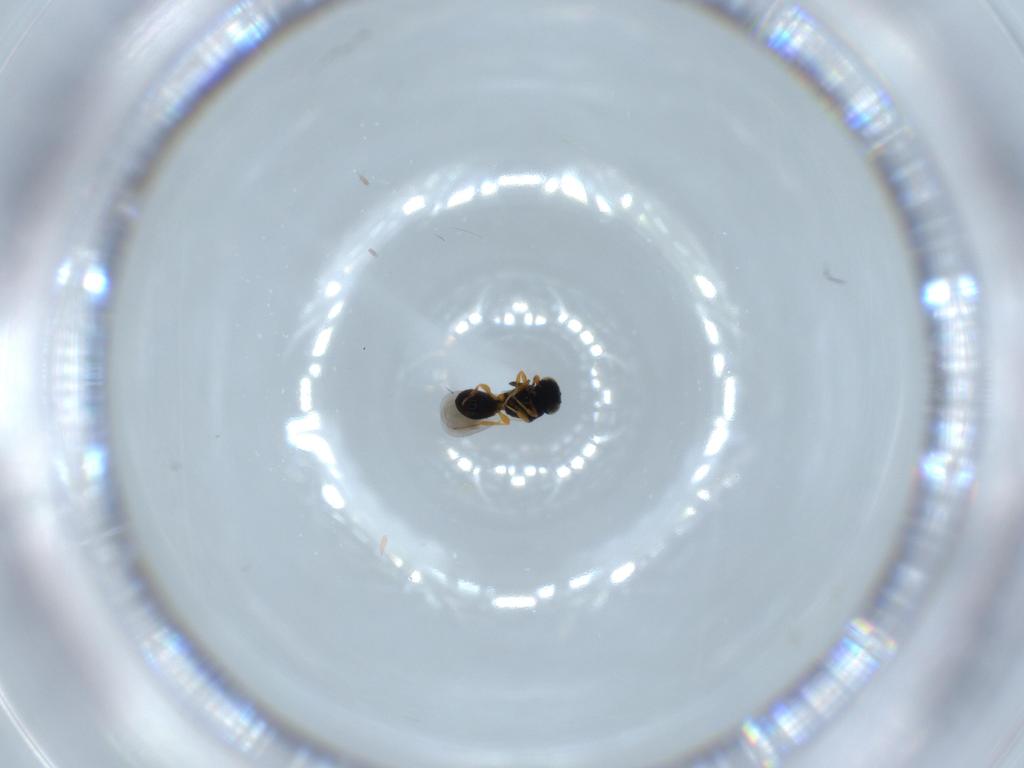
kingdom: Animalia
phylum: Arthropoda
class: Insecta
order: Hymenoptera
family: Platygastridae
